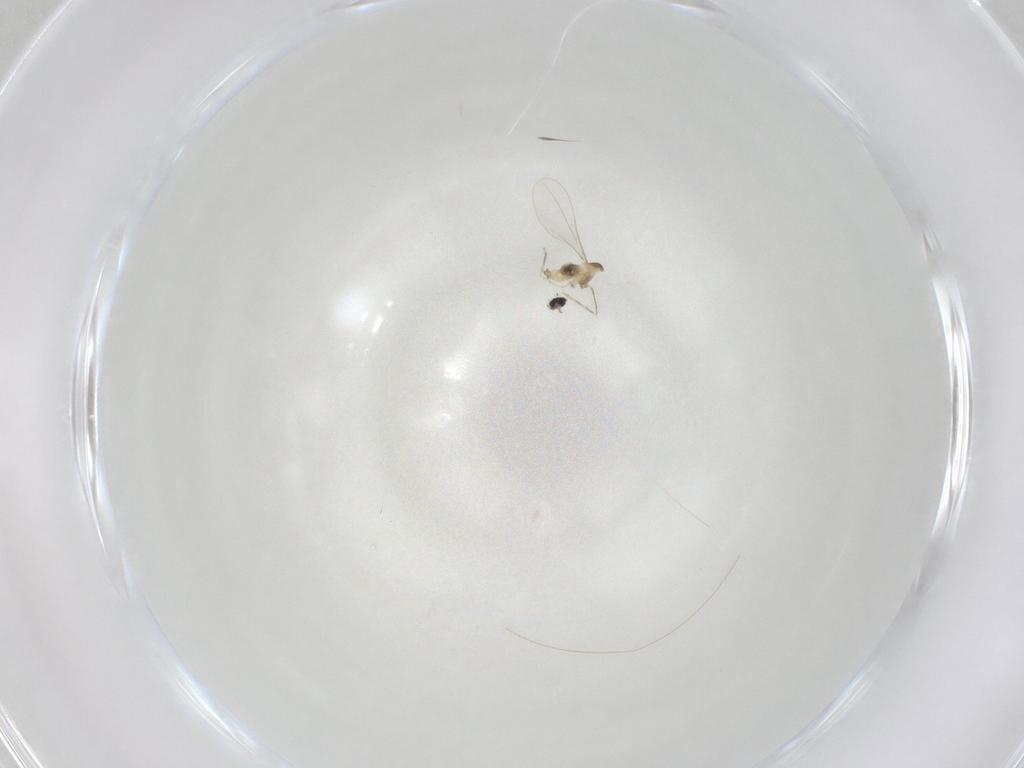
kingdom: Animalia
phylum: Arthropoda
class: Insecta
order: Diptera
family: Cecidomyiidae
